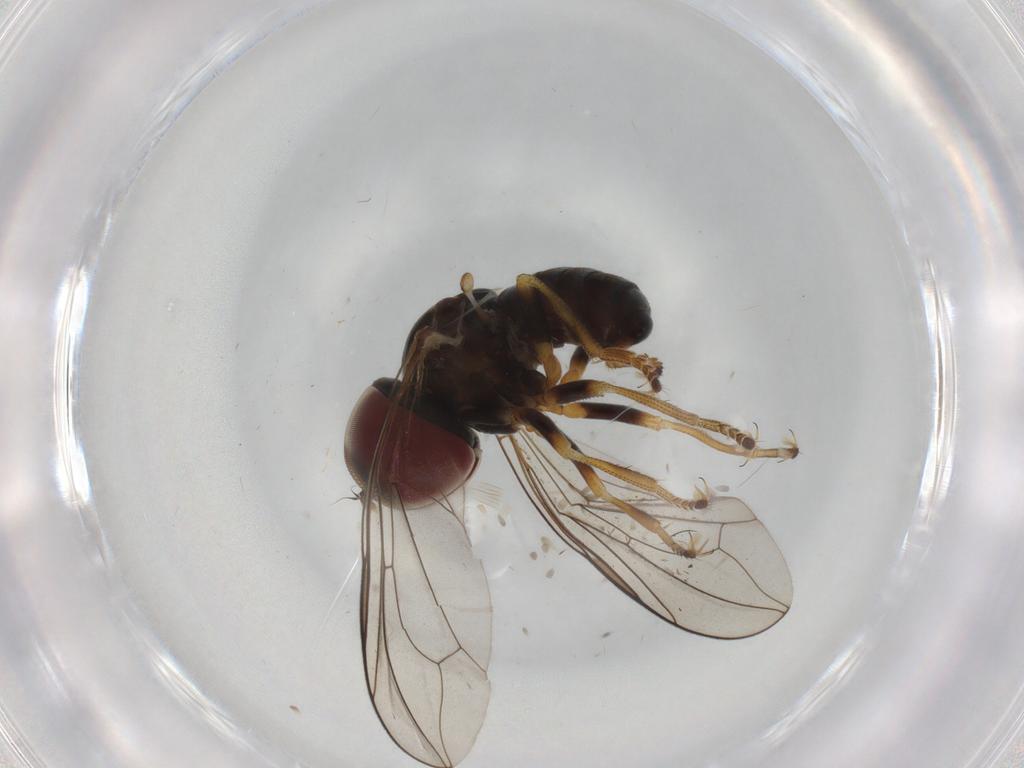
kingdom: Animalia
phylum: Arthropoda
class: Insecta
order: Diptera
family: Pipunculidae
